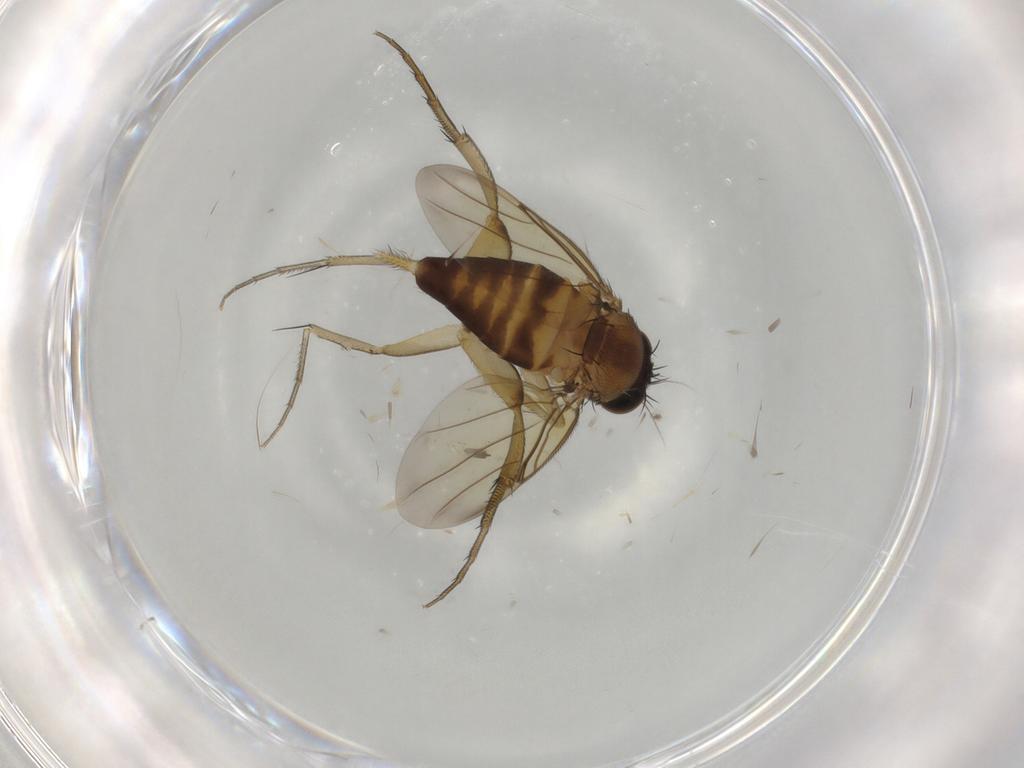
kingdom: Animalia
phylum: Arthropoda
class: Insecta
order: Diptera
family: Phoridae
